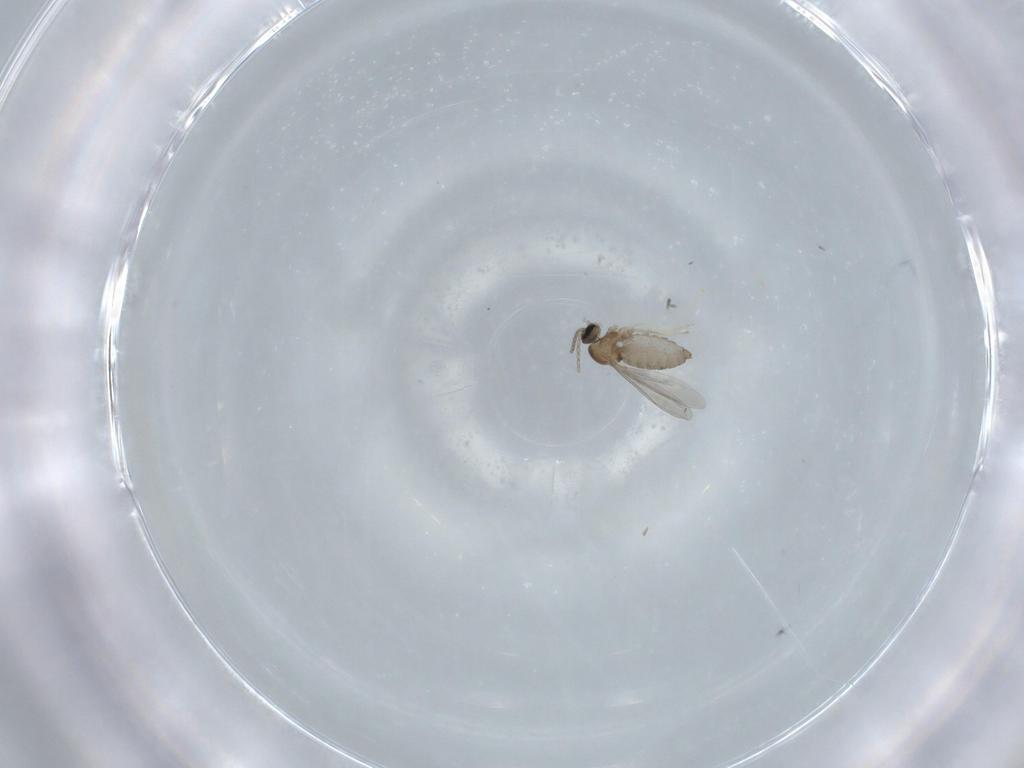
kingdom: Animalia
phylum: Arthropoda
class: Insecta
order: Diptera
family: Cecidomyiidae
